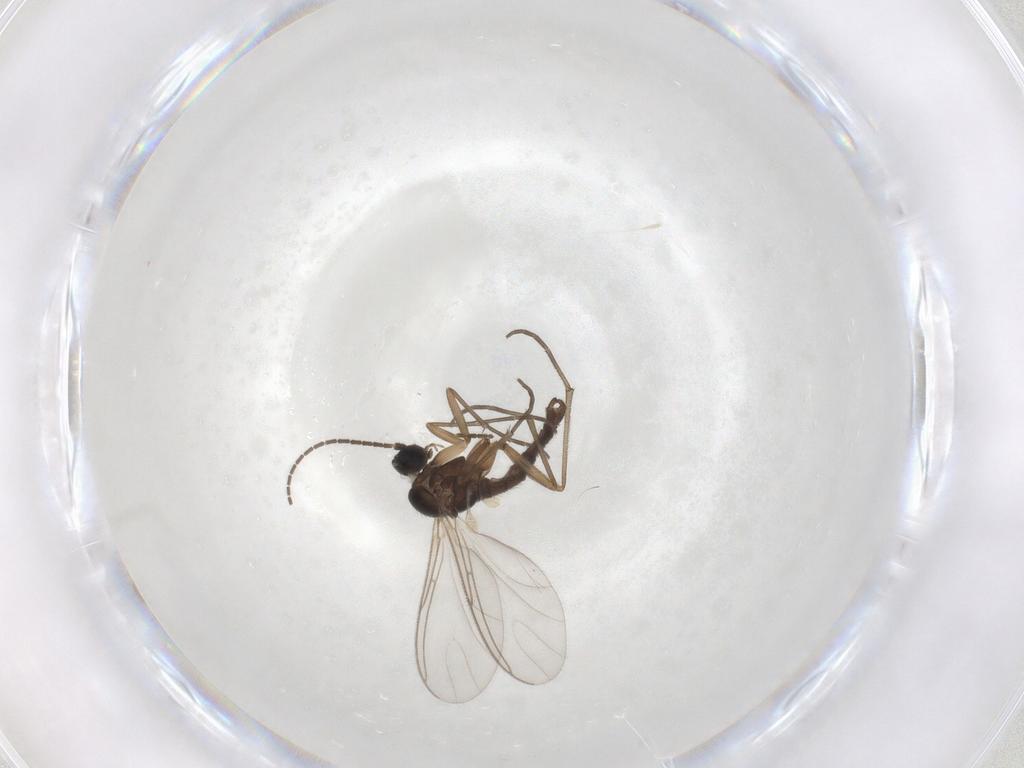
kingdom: Animalia
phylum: Arthropoda
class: Insecta
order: Diptera
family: Sciaridae
